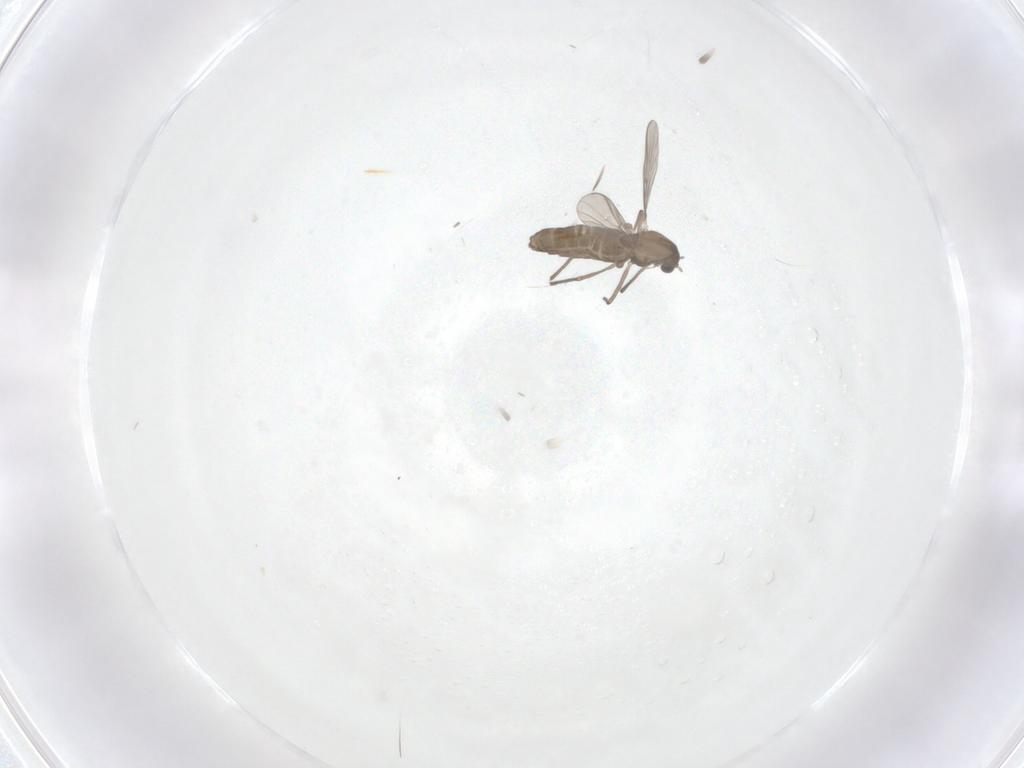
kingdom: Animalia
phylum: Arthropoda
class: Insecta
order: Diptera
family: Chironomidae
